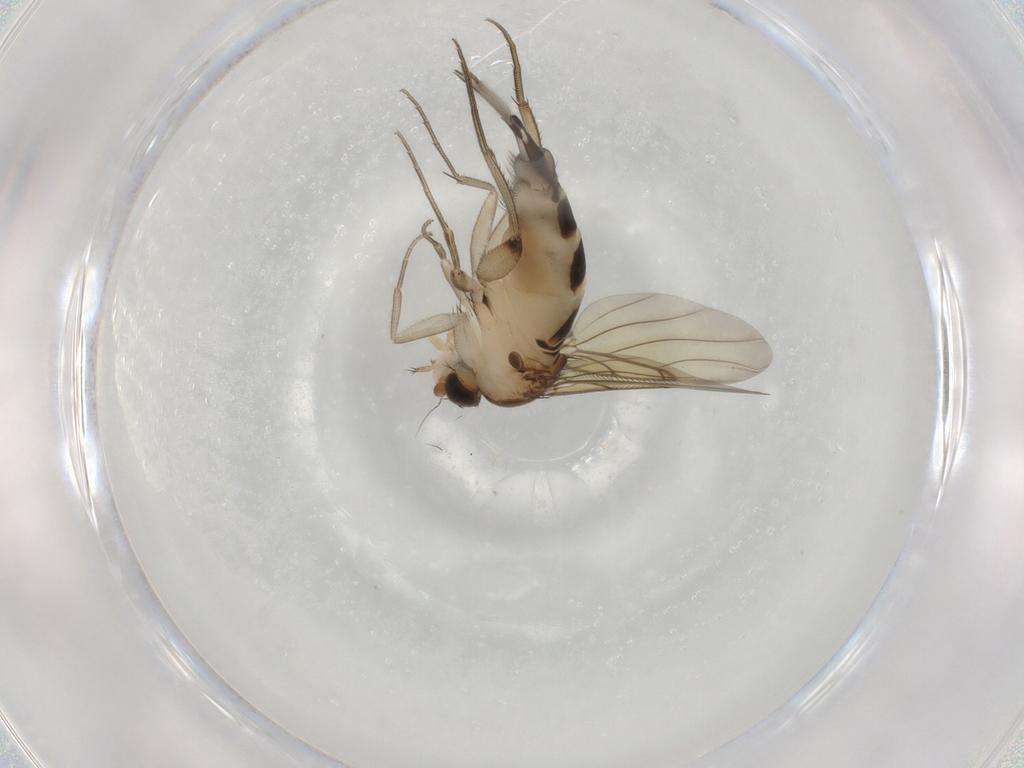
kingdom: Animalia
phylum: Arthropoda
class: Insecta
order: Diptera
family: Phoridae
